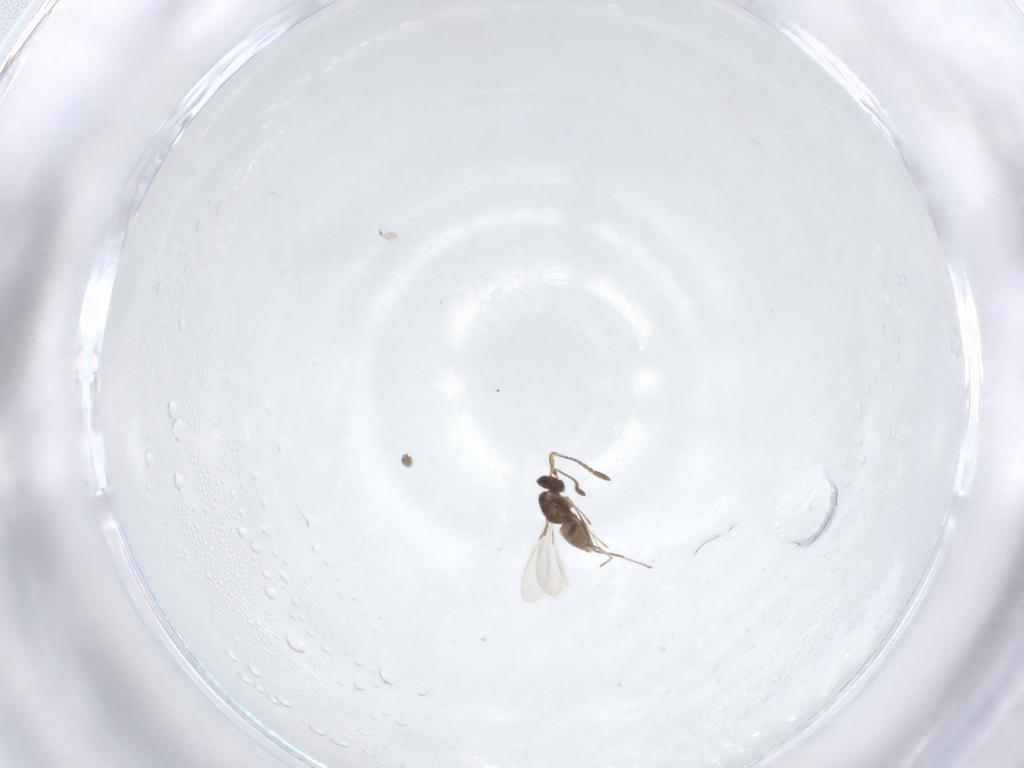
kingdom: Animalia
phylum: Arthropoda
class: Insecta
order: Hymenoptera
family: Mymaridae
